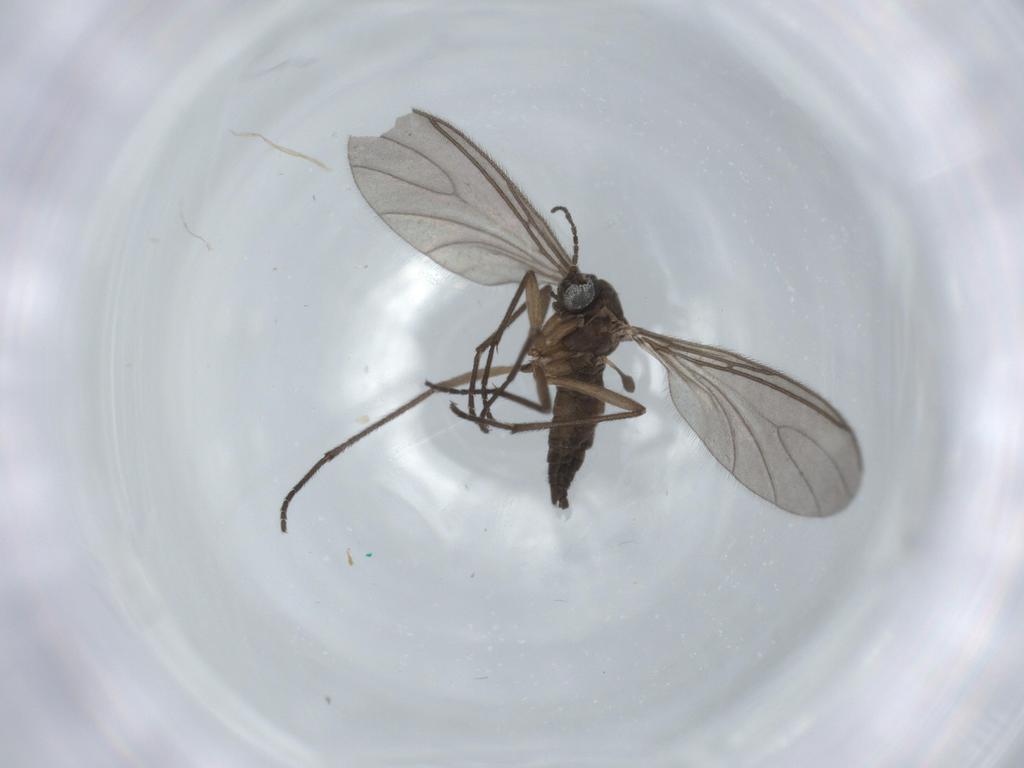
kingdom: Animalia
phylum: Arthropoda
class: Insecta
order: Diptera
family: Sciaridae
